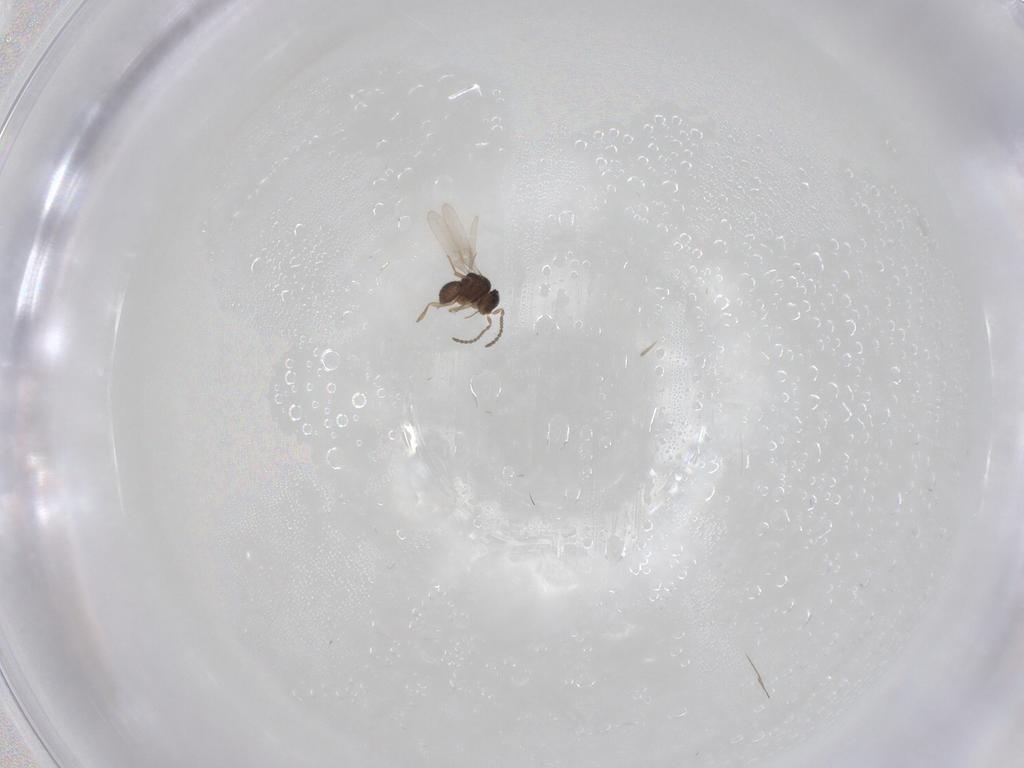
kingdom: Animalia
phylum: Arthropoda
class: Insecta
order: Hymenoptera
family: Scelionidae
